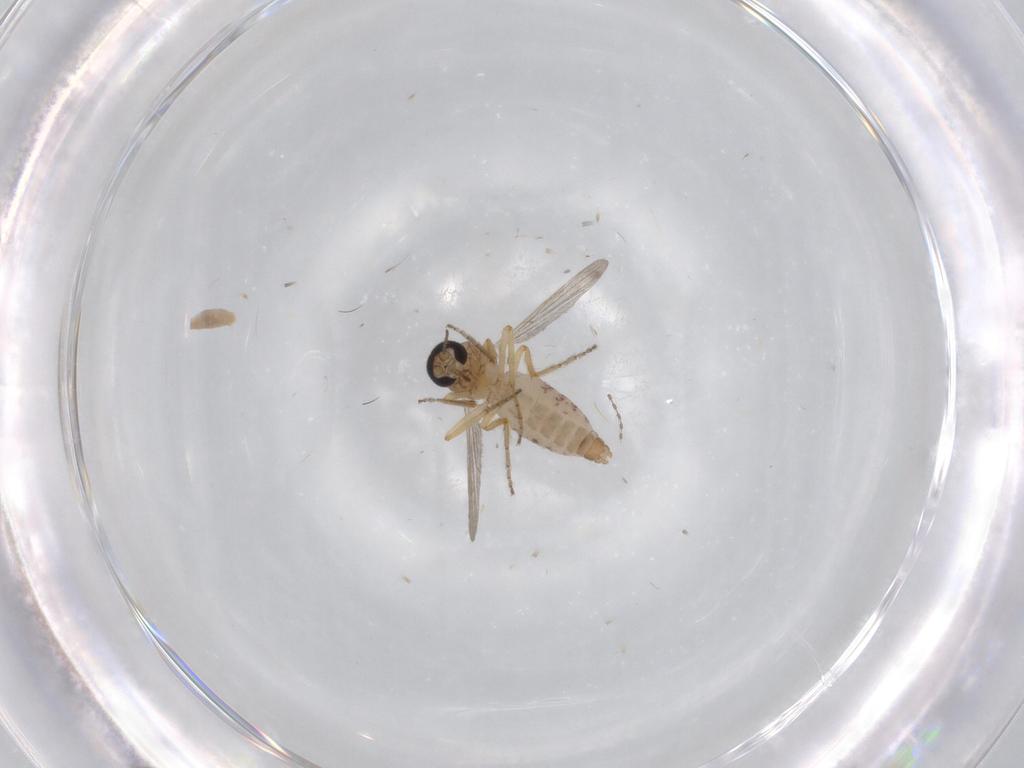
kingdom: Animalia
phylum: Arthropoda
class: Insecta
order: Diptera
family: Ceratopogonidae
